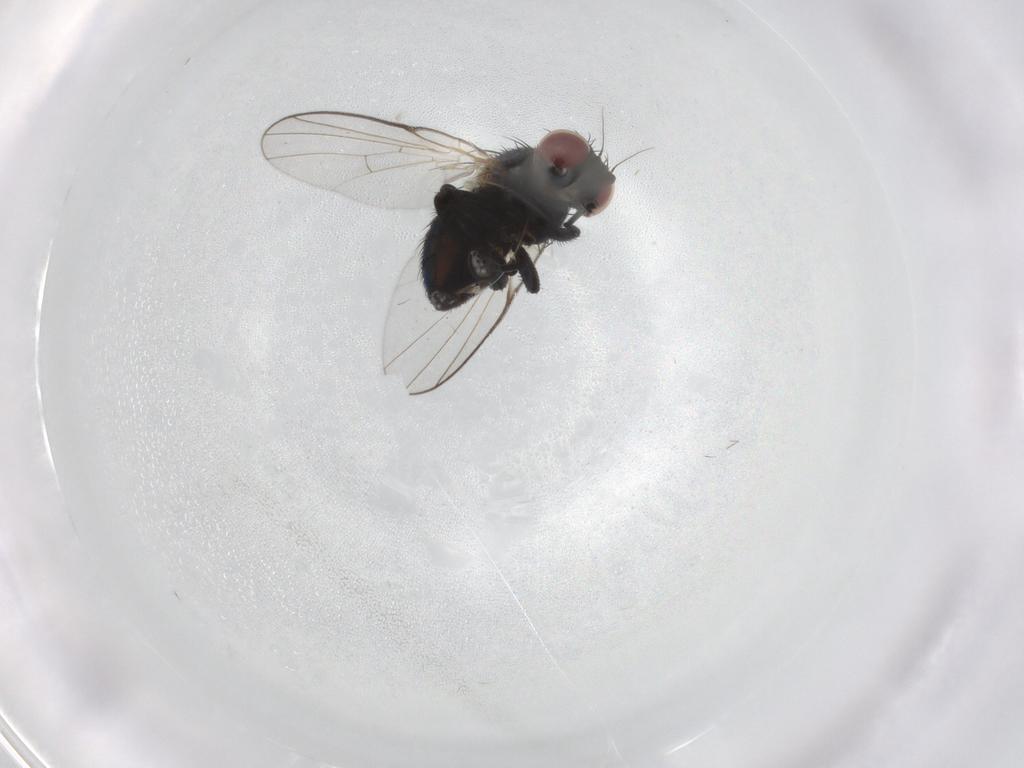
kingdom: Animalia
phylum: Arthropoda
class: Insecta
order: Diptera
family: Agromyzidae
